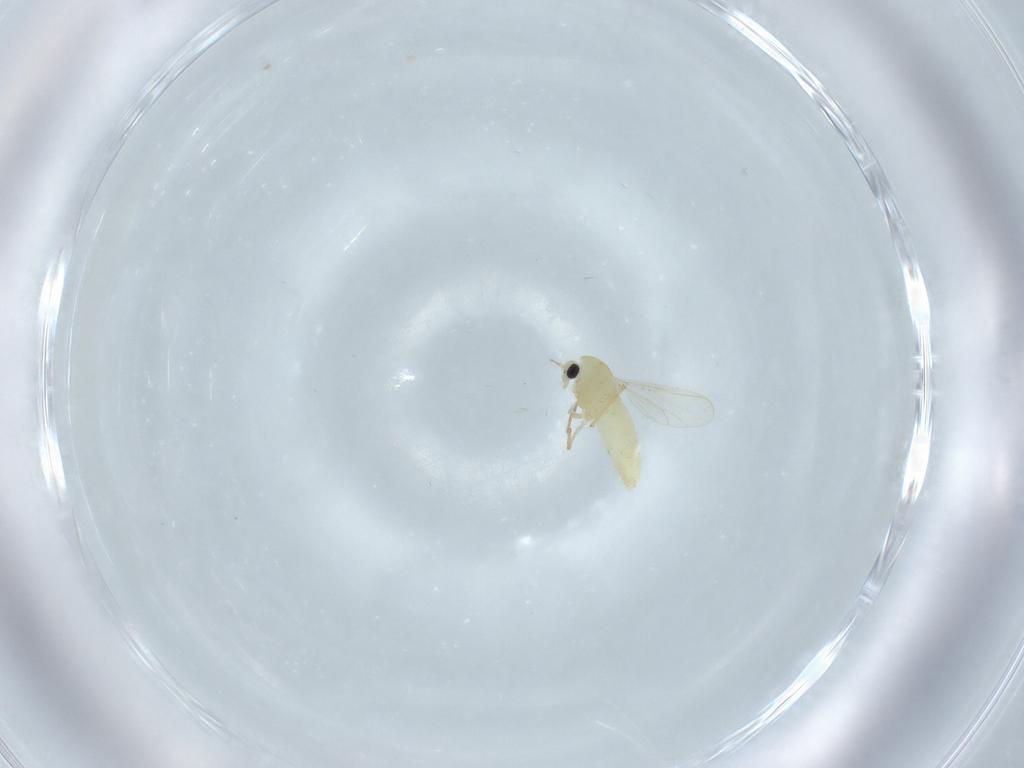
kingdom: Animalia
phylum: Arthropoda
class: Insecta
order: Diptera
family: Chironomidae
